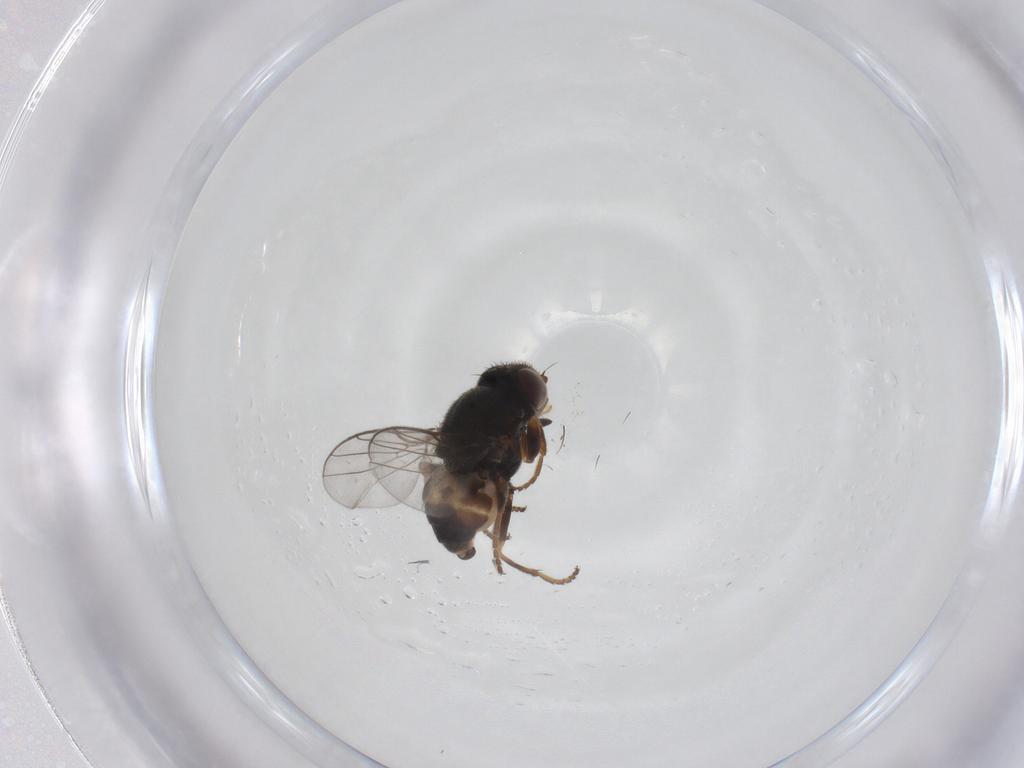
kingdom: Animalia
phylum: Arthropoda
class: Insecta
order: Diptera
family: Chloropidae
